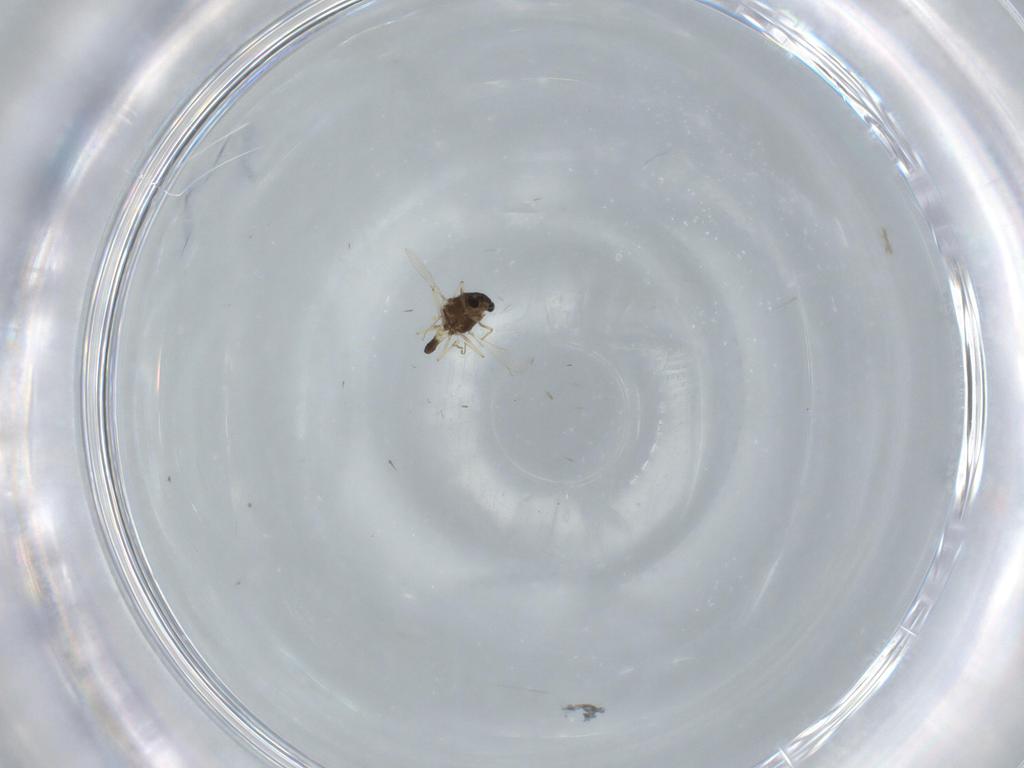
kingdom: Animalia
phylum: Arthropoda
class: Insecta
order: Diptera
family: Chironomidae
